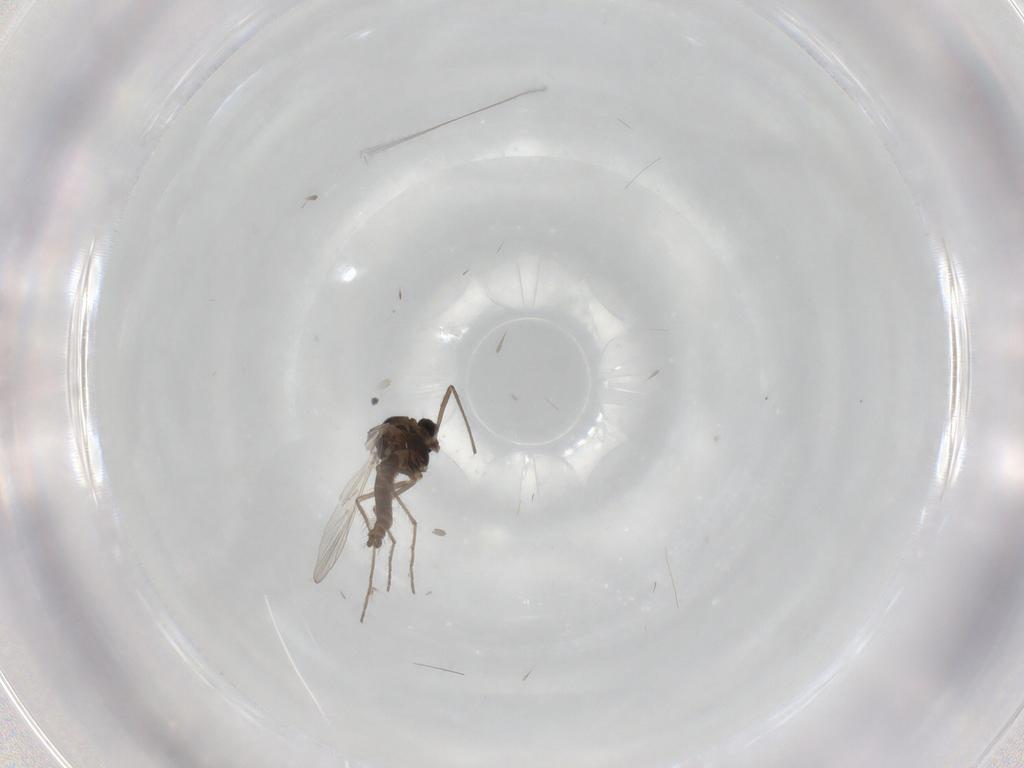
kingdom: Animalia
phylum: Arthropoda
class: Insecta
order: Diptera
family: Chironomidae
